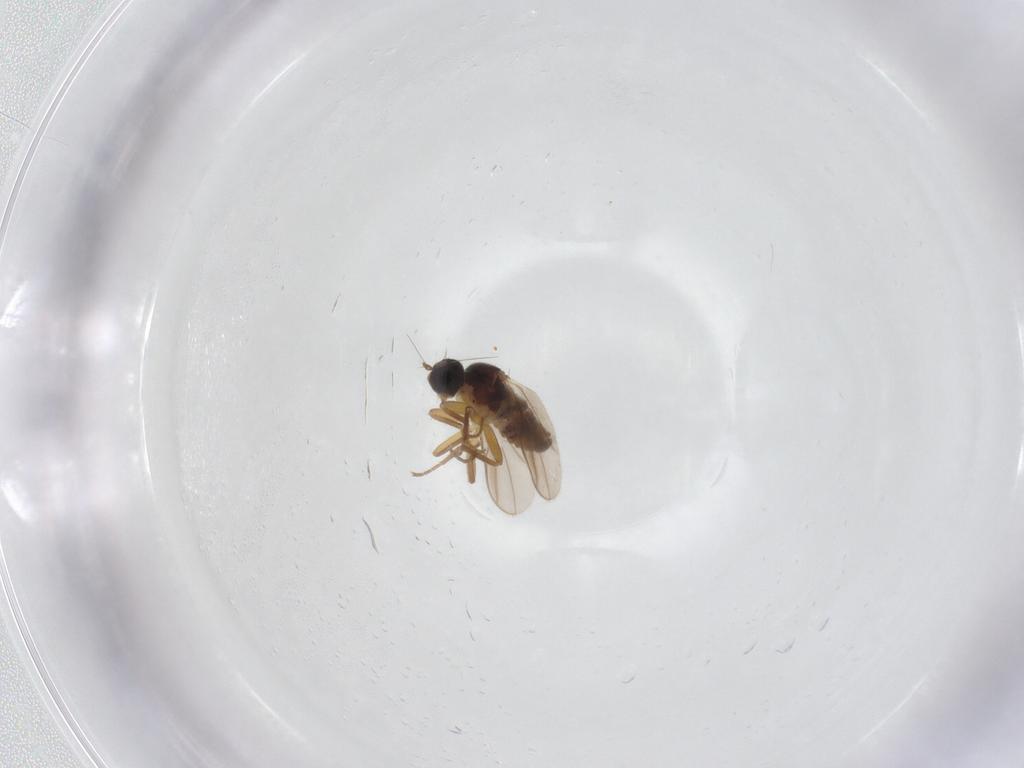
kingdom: Animalia
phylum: Arthropoda
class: Insecta
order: Diptera
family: Hybotidae
